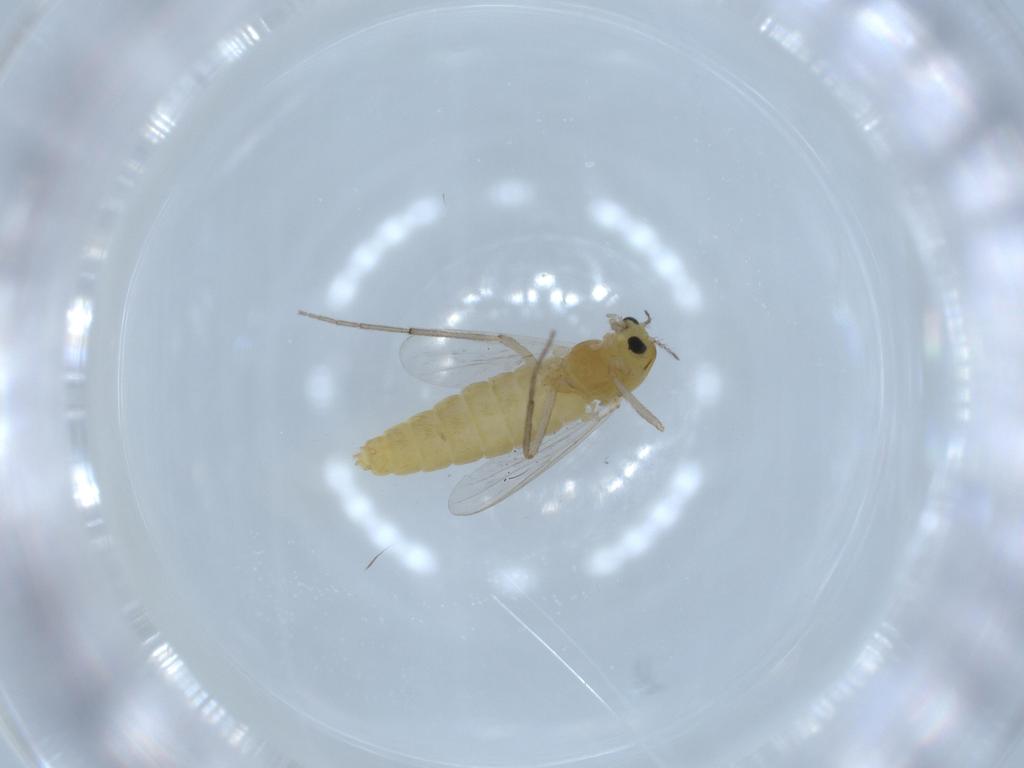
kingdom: Animalia
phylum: Arthropoda
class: Insecta
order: Diptera
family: Chironomidae
